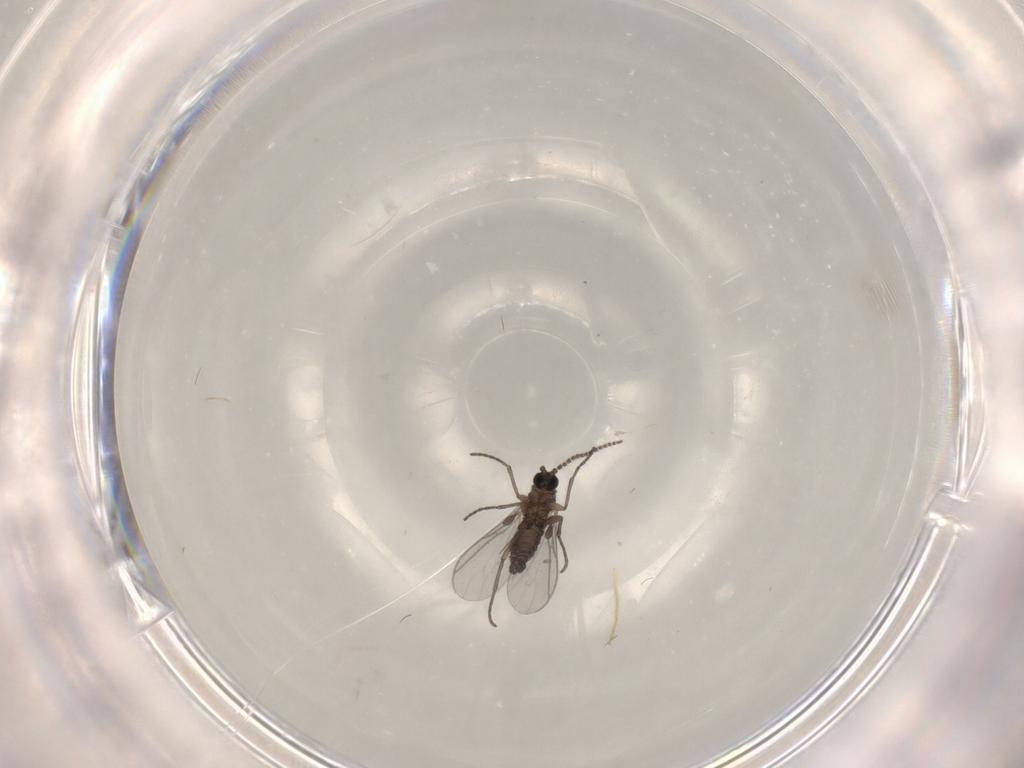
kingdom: Animalia
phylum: Arthropoda
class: Insecta
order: Diptera
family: Chironomidae
